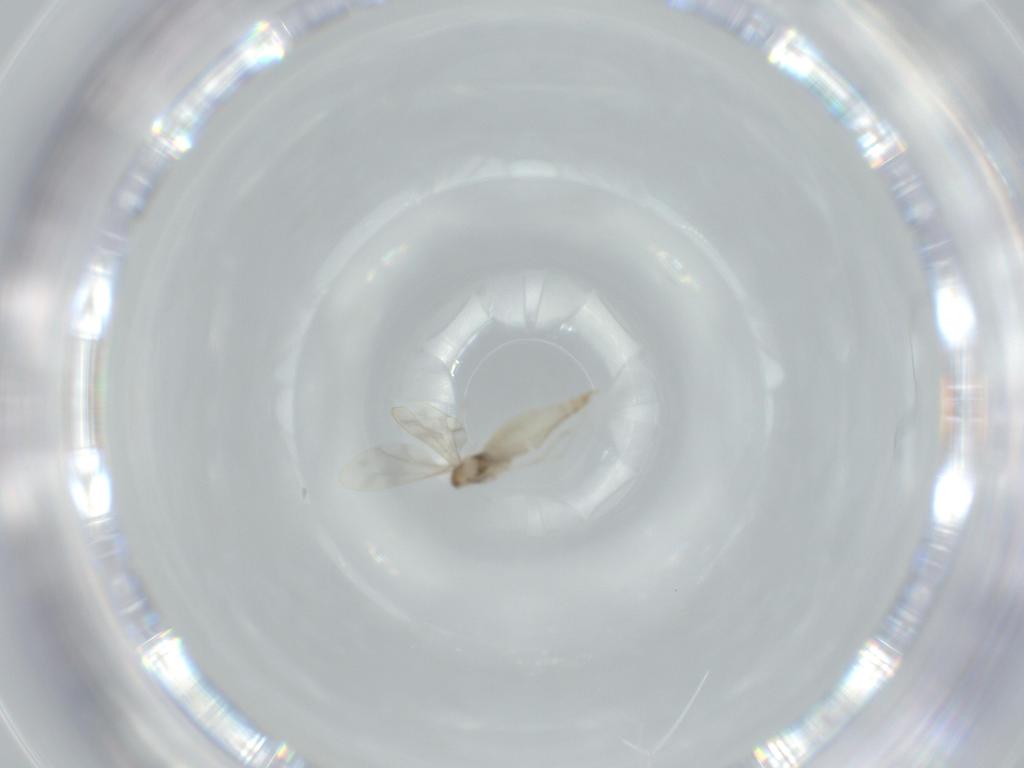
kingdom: Animalia
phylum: Arthropoda
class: Insecta
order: Diptera
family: Cecidomyiidae
